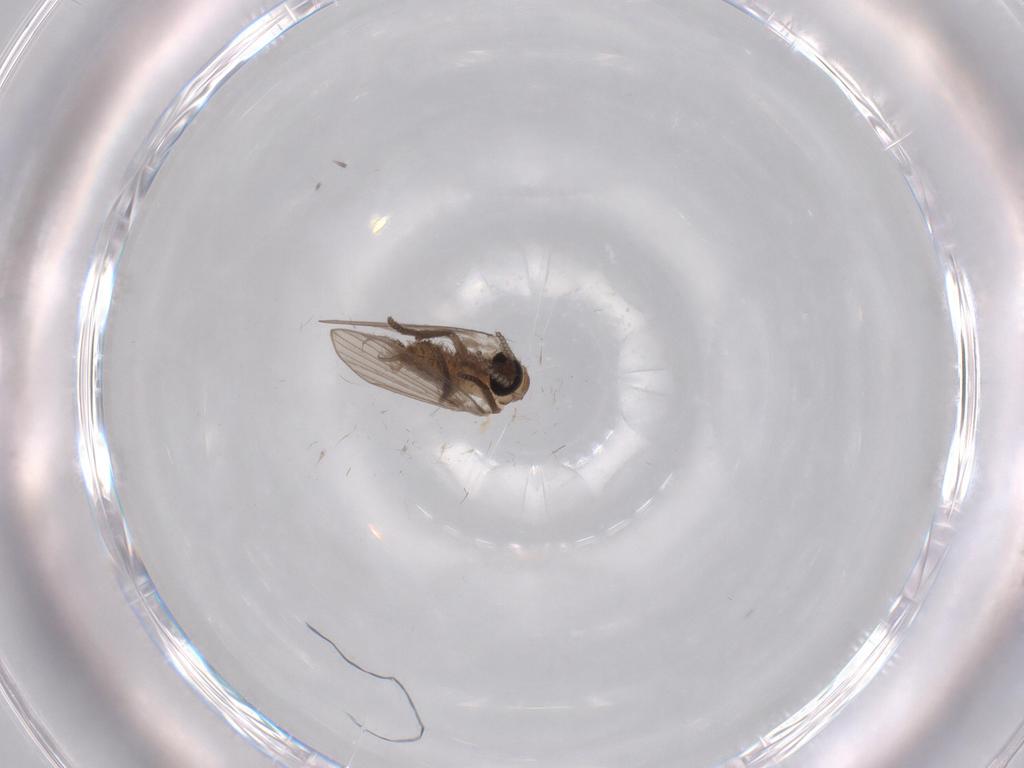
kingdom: Animalia
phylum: Arthropoda
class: Insecta
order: Diptera
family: Psychodidae
